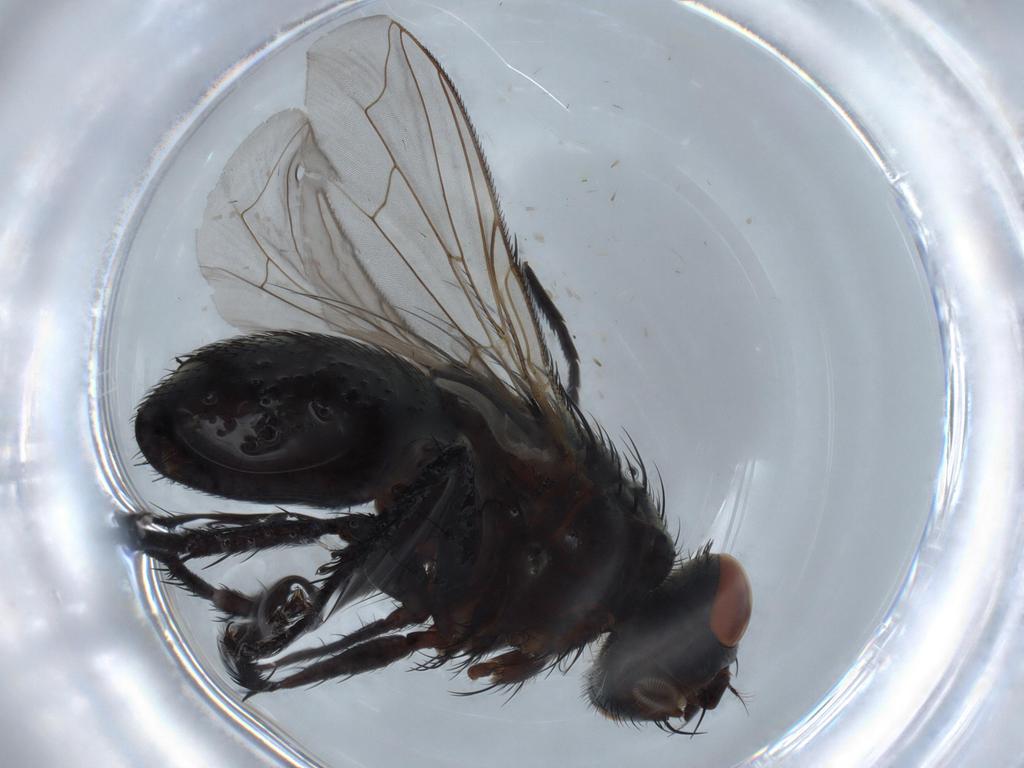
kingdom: Animalia
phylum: Arthropoda
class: Insecta
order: Diptera
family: Sarcophagidae
